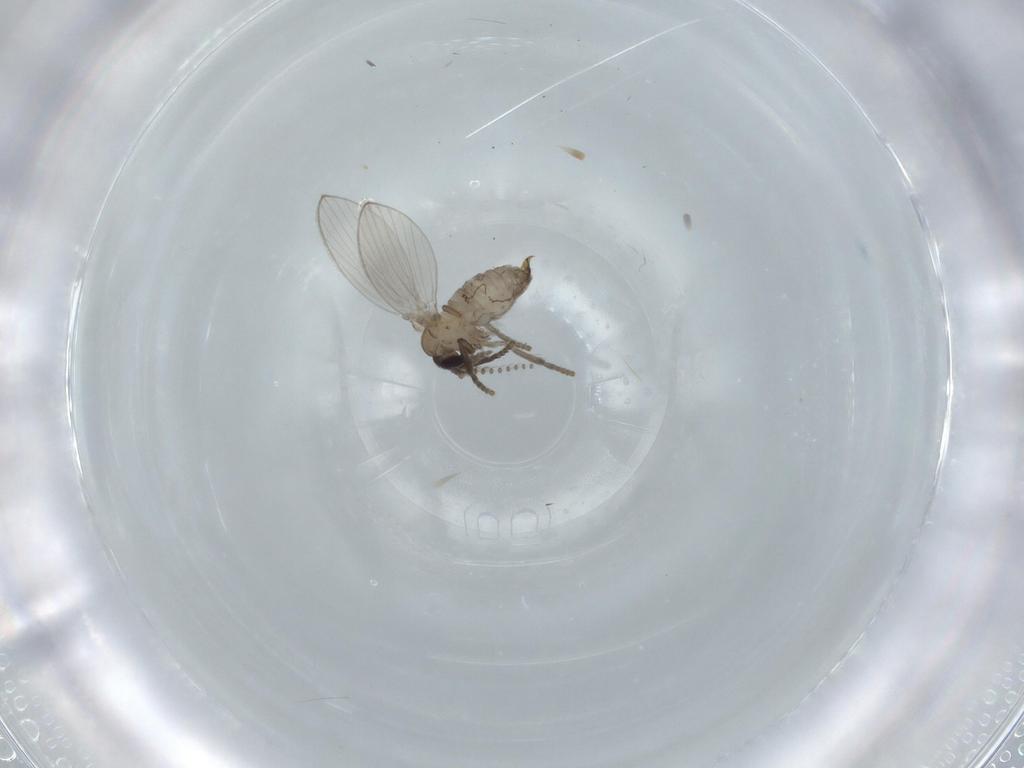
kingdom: Animalia
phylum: Arthropoda
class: Insecta
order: Diptera
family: Psychodidae
